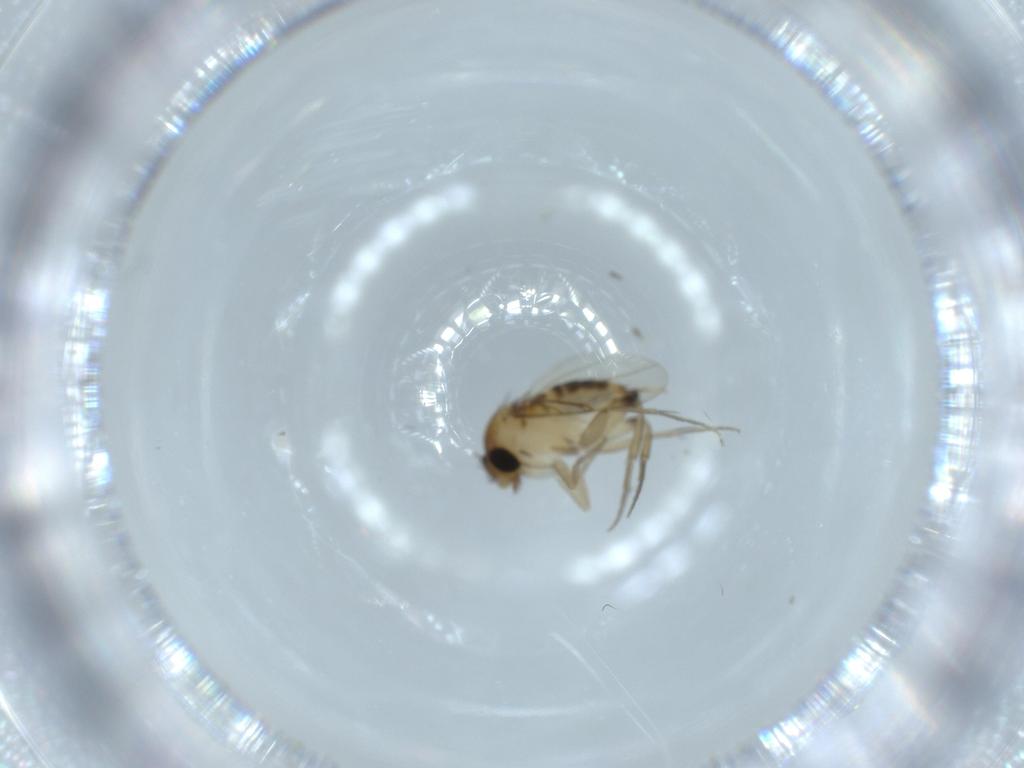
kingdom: Animalia
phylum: Arthropoda
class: Insecta
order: Diptera
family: Phoridae
